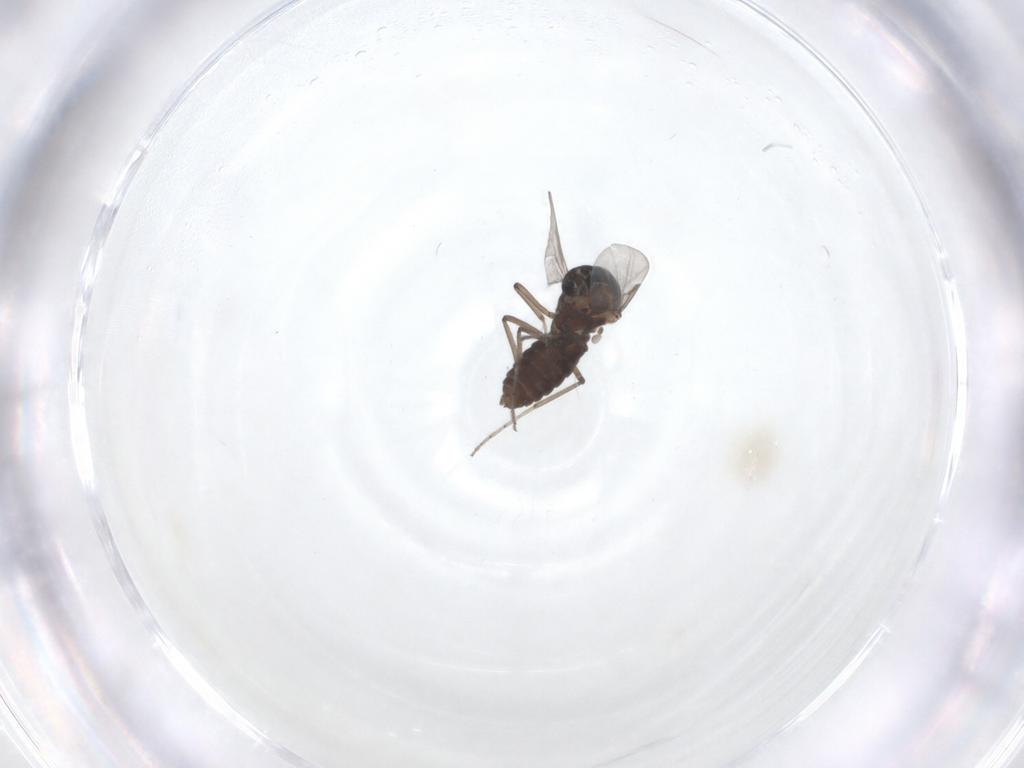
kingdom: Animalia
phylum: Arthropoda
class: Insecta
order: Diptera
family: Ceratopogonidae
